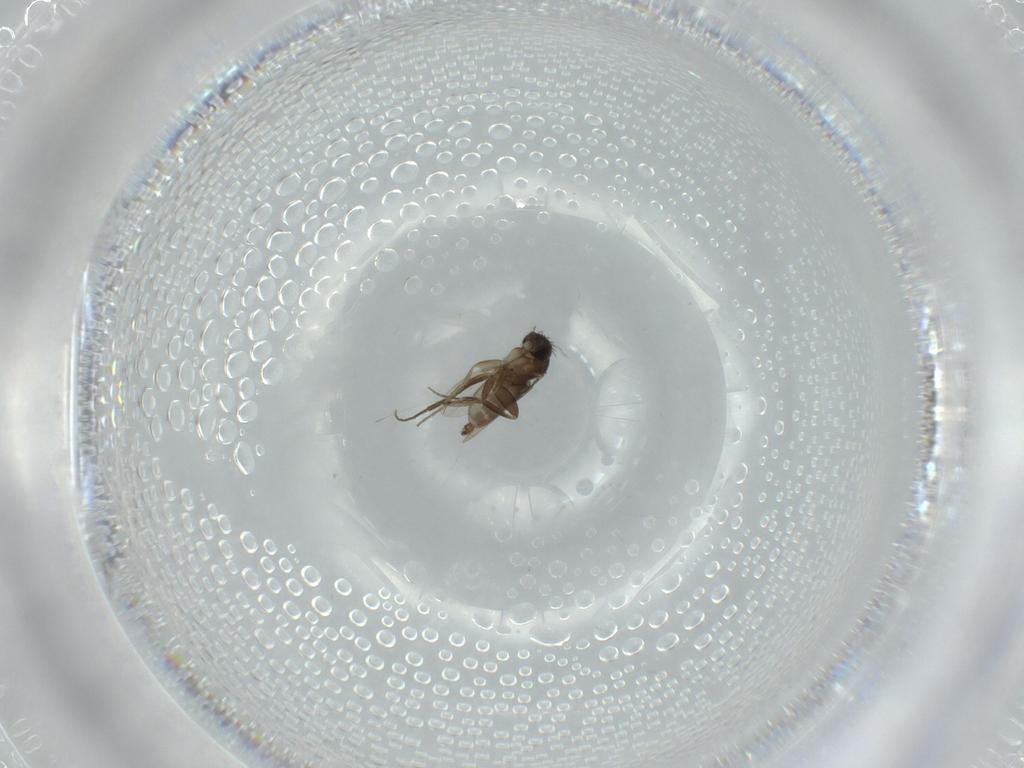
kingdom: Animalia
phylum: Arthropoda
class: Insecta
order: Diptera
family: Phoridae
